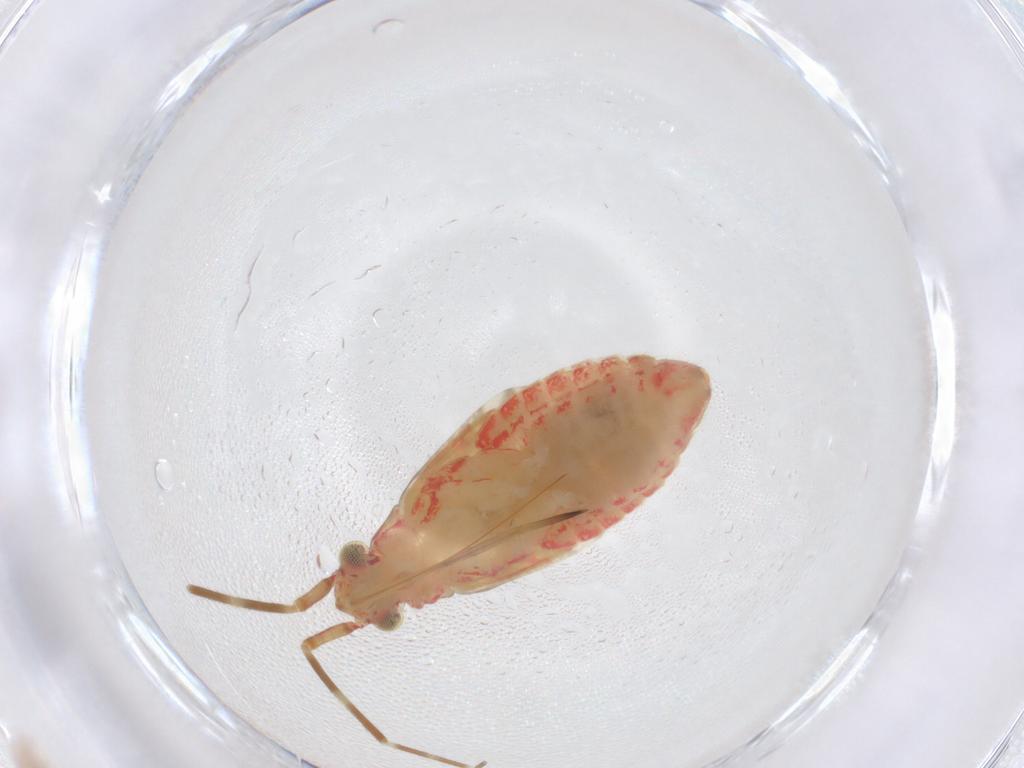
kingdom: Animalia
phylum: Arthropoda
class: Insecta
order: Hemiptera
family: Miridae
